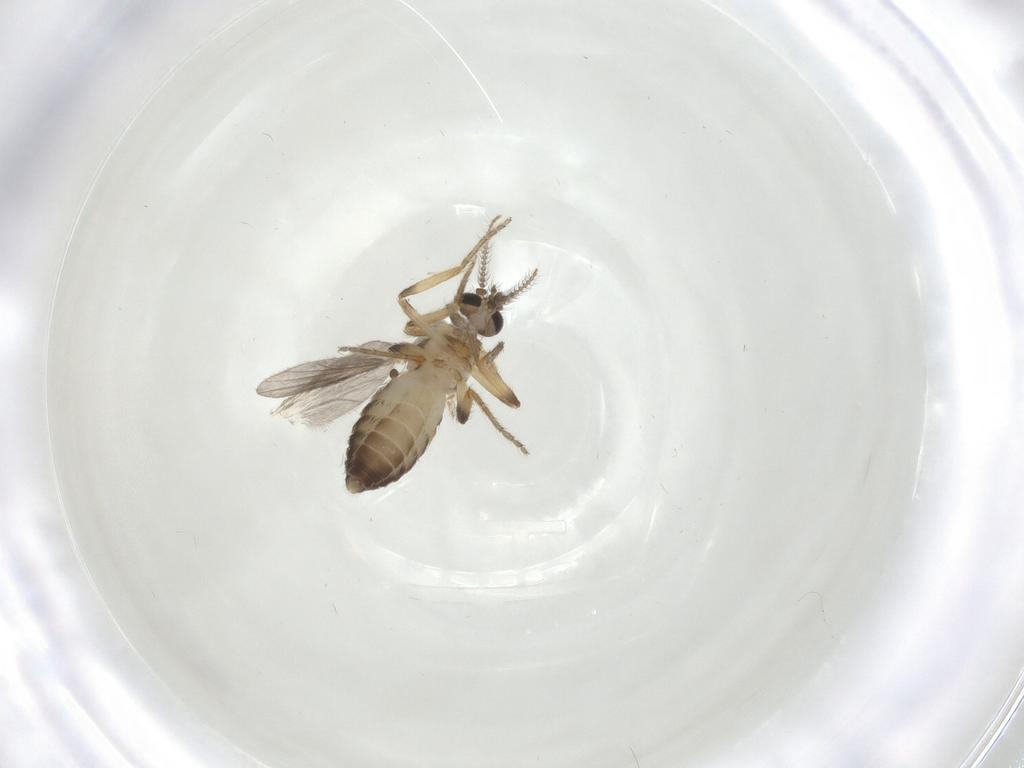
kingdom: Animalia
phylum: Arthropoda
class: Insecta
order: Diptera
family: Ceratopogonidae
